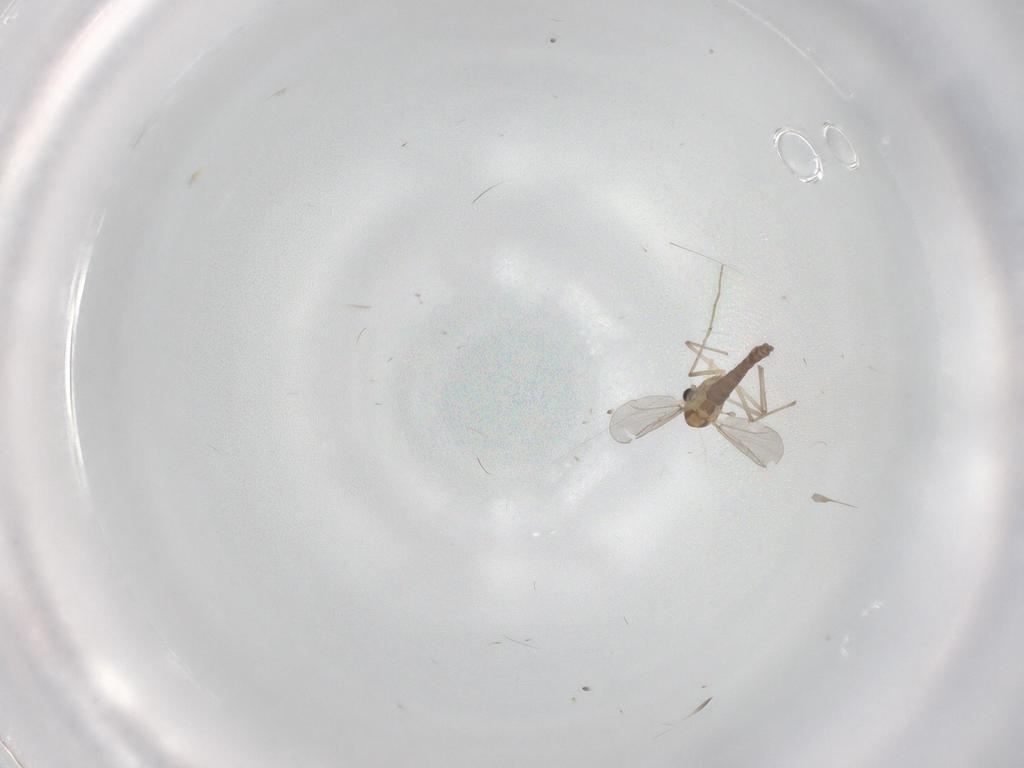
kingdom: Animalia
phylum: Arthropoda
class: Insecta
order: Diptera
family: Chironomidae
